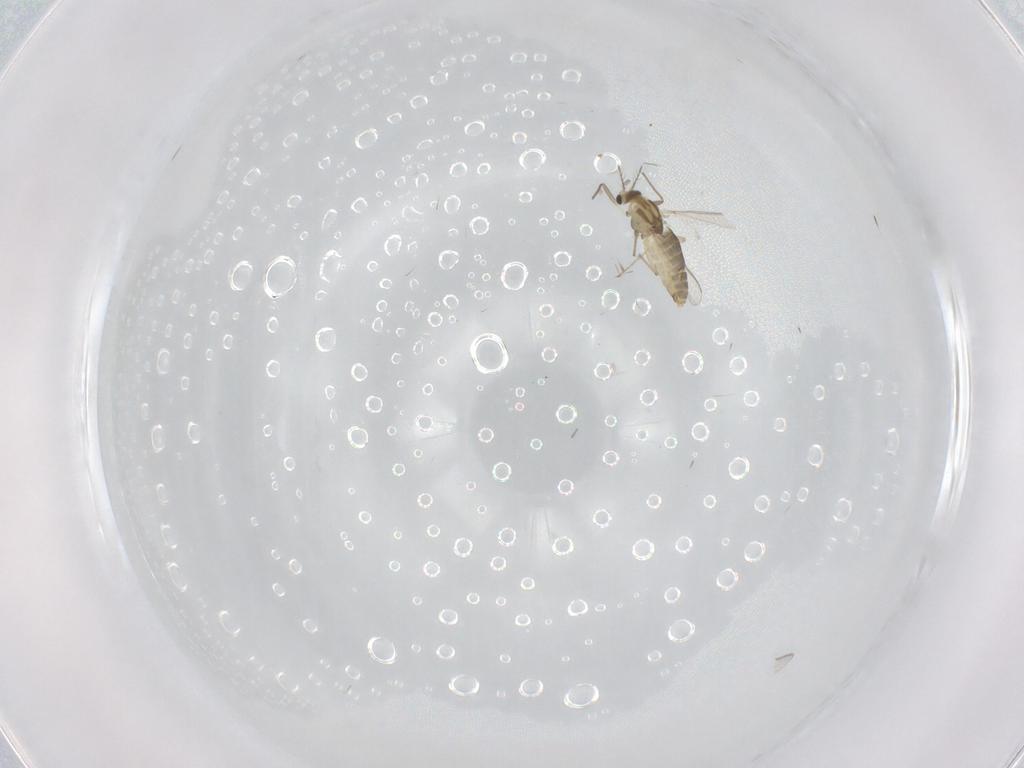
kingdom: Animalia
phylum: Arthropoda
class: Insecta
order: Diptera
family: Chironomidae
